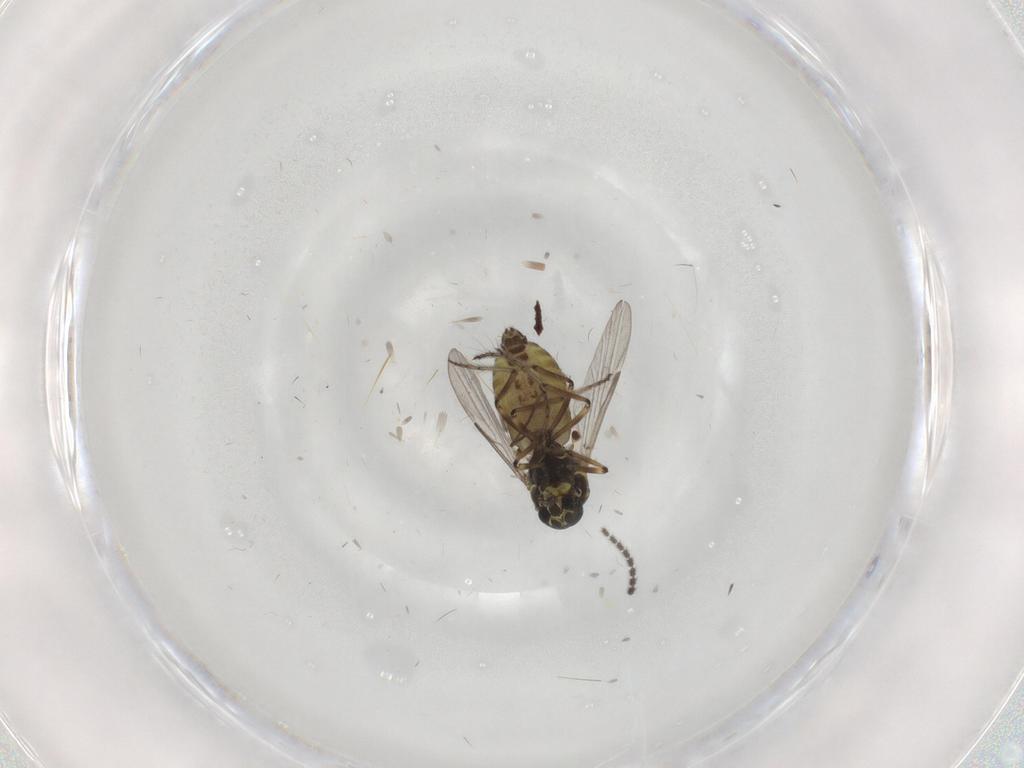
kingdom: Animalia
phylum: Arthropoda
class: Insecta
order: Diptera
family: Ceratopogonidae
